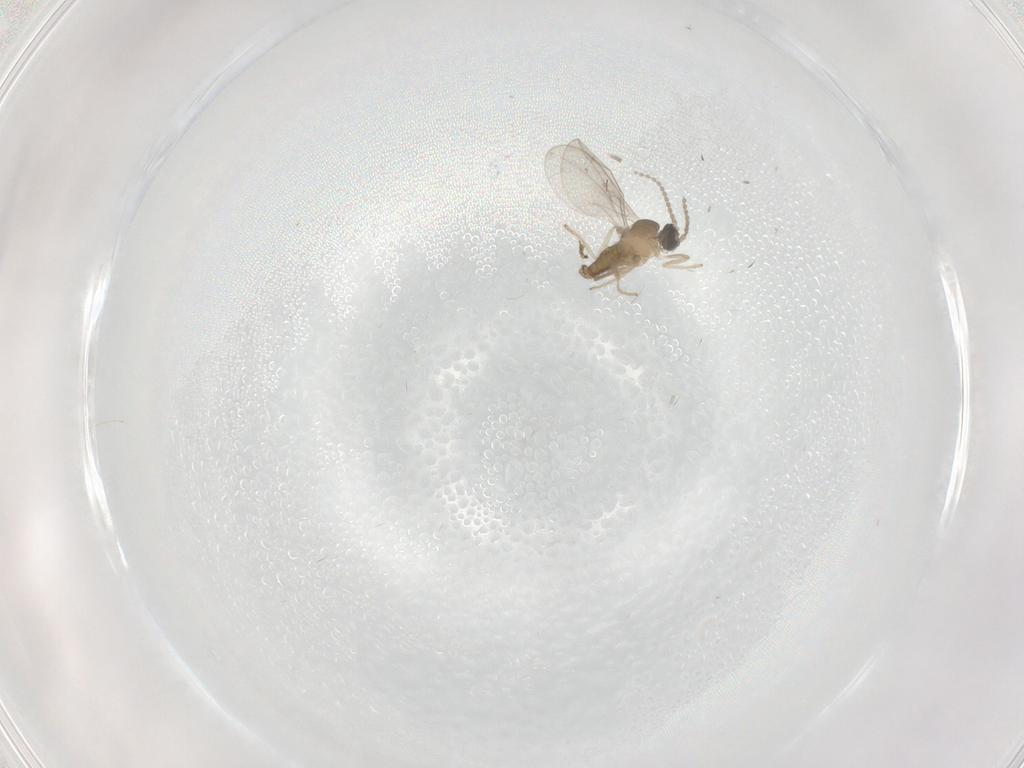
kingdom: Animalia
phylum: Arthropoda
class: Insecta
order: Diptera
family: Cecidomyiidae
